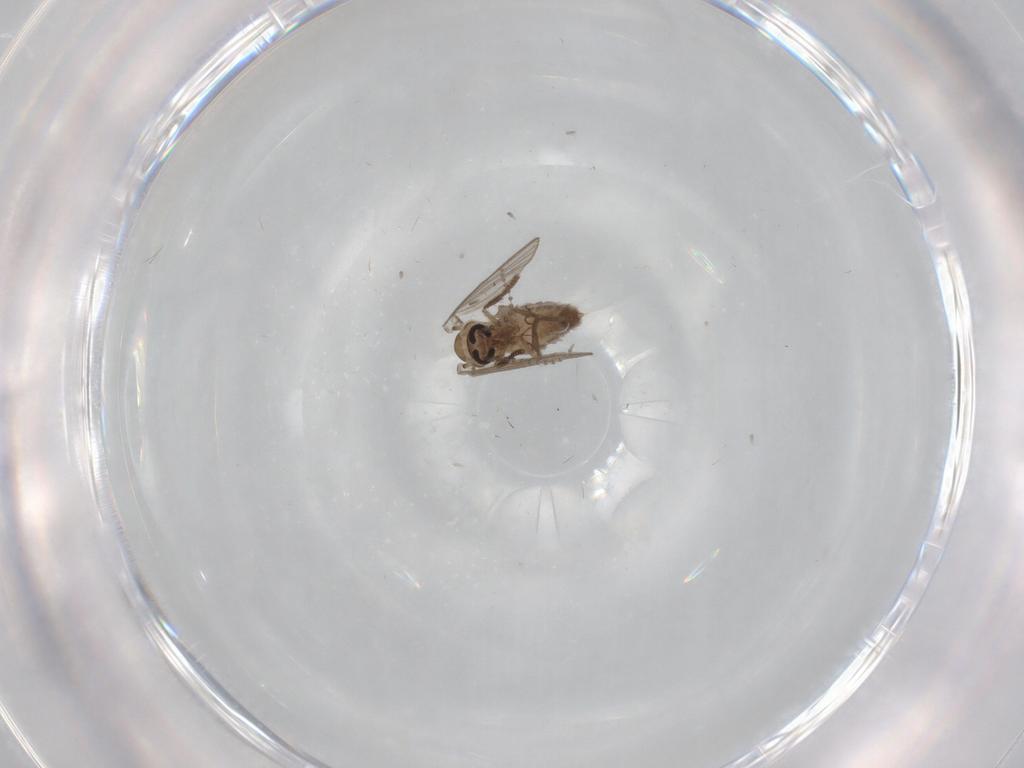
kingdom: Animalia
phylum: Arthropoda
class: Insecta
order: Diptera
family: Psychodidae
